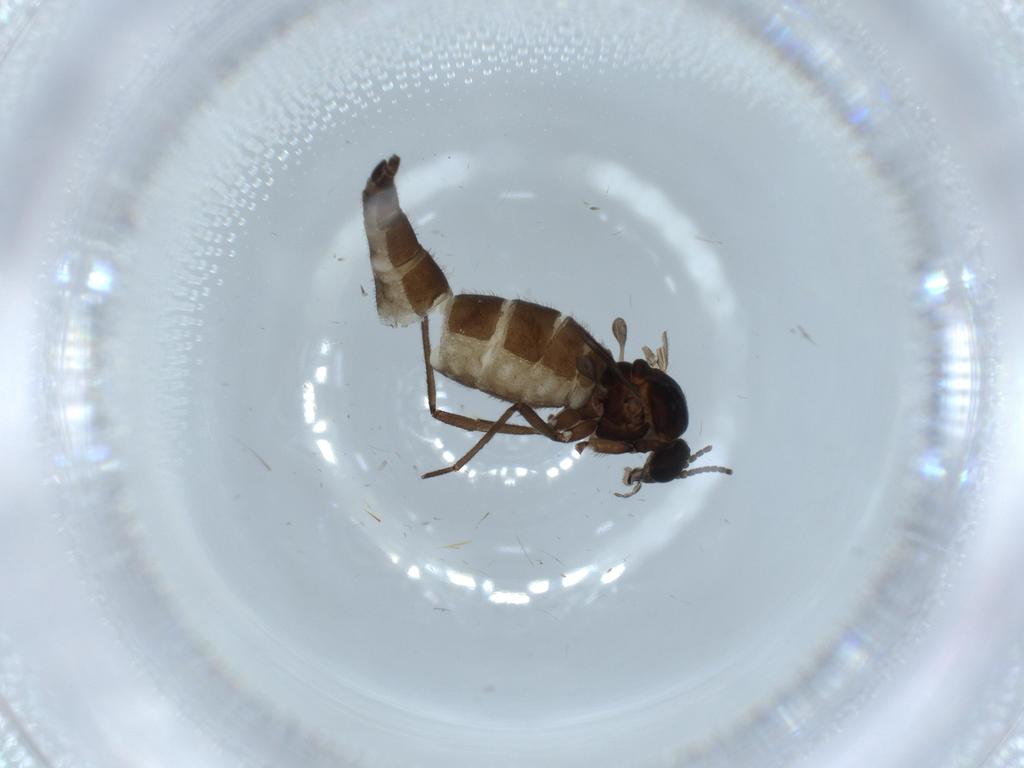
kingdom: Animalia
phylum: Arthropoda
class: Insecta
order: Diptera
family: Sciaridae
